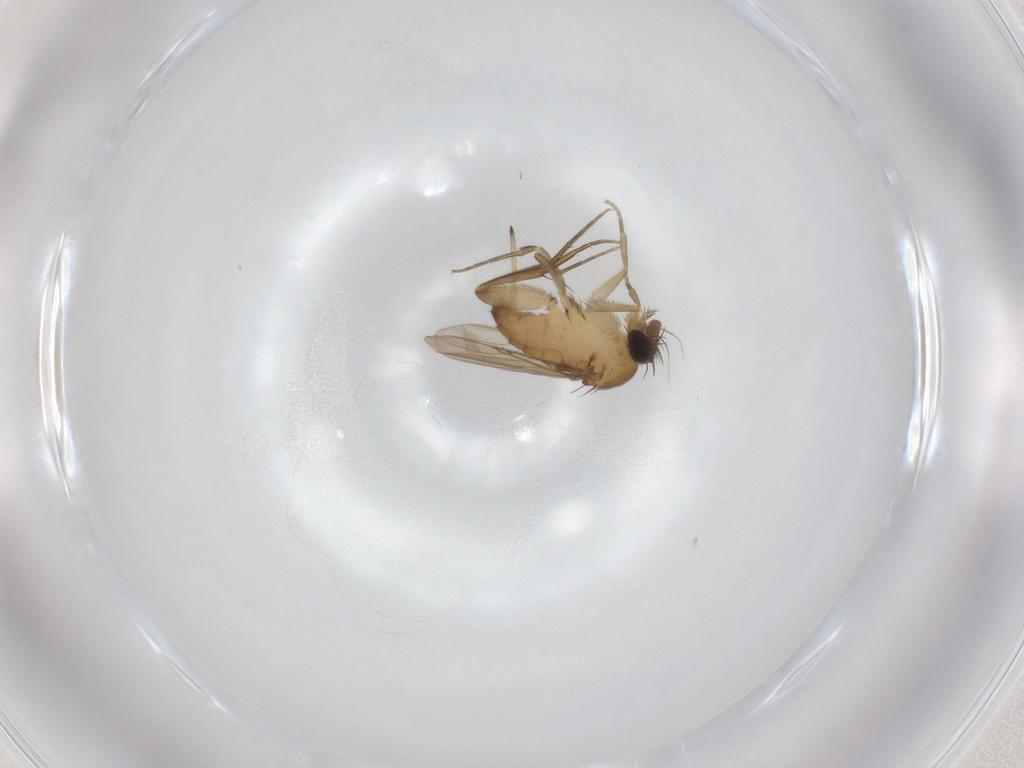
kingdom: Animalia
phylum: Arthropoda
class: Insecta
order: Diptera
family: Phoridae
